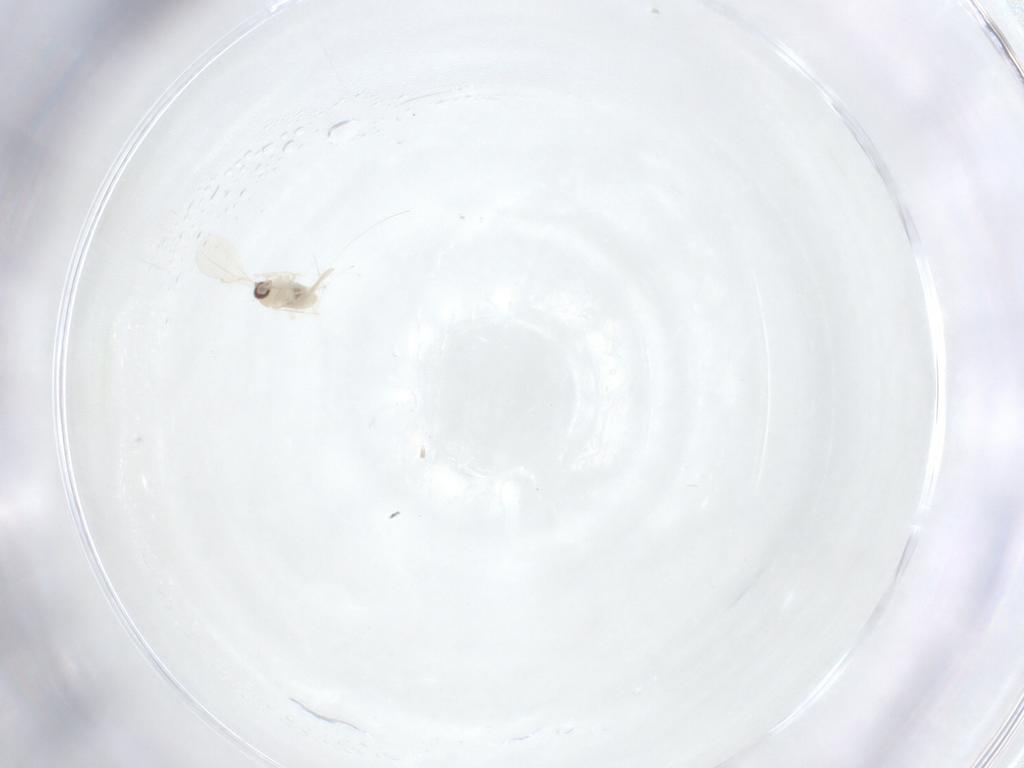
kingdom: Animalia
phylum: Arthropoda
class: Insecta
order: Diptera
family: Cecidomyiidae
